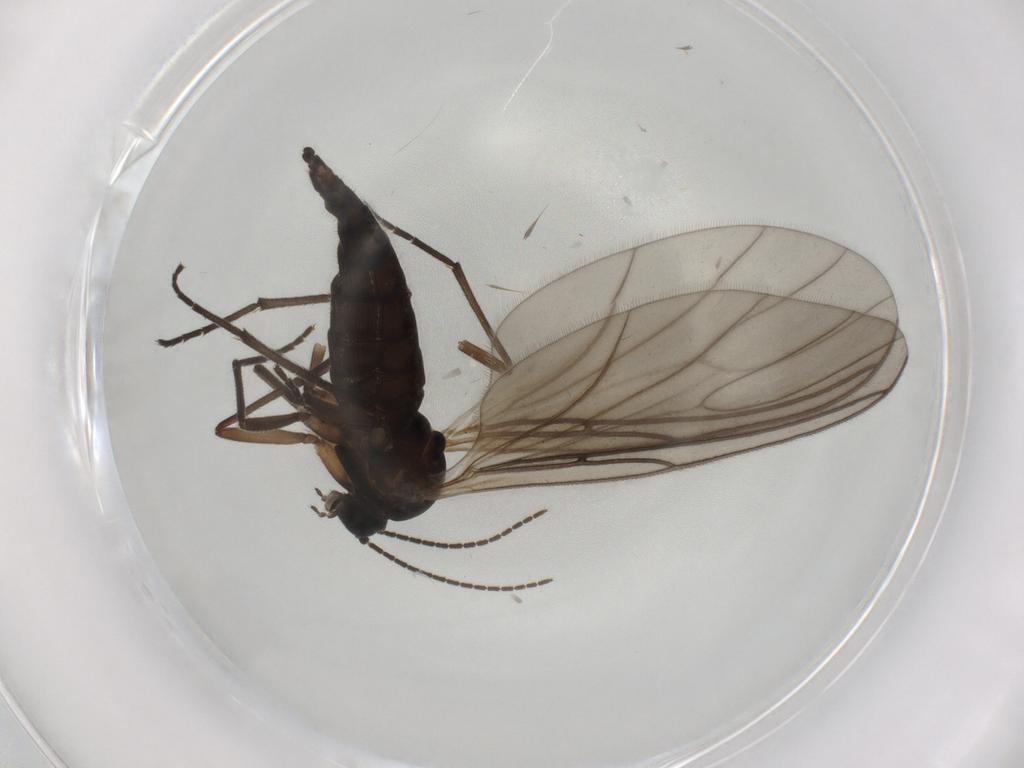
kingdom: Animalia
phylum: Arthropoda
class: Insecta
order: Diptera
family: Sciaridae
